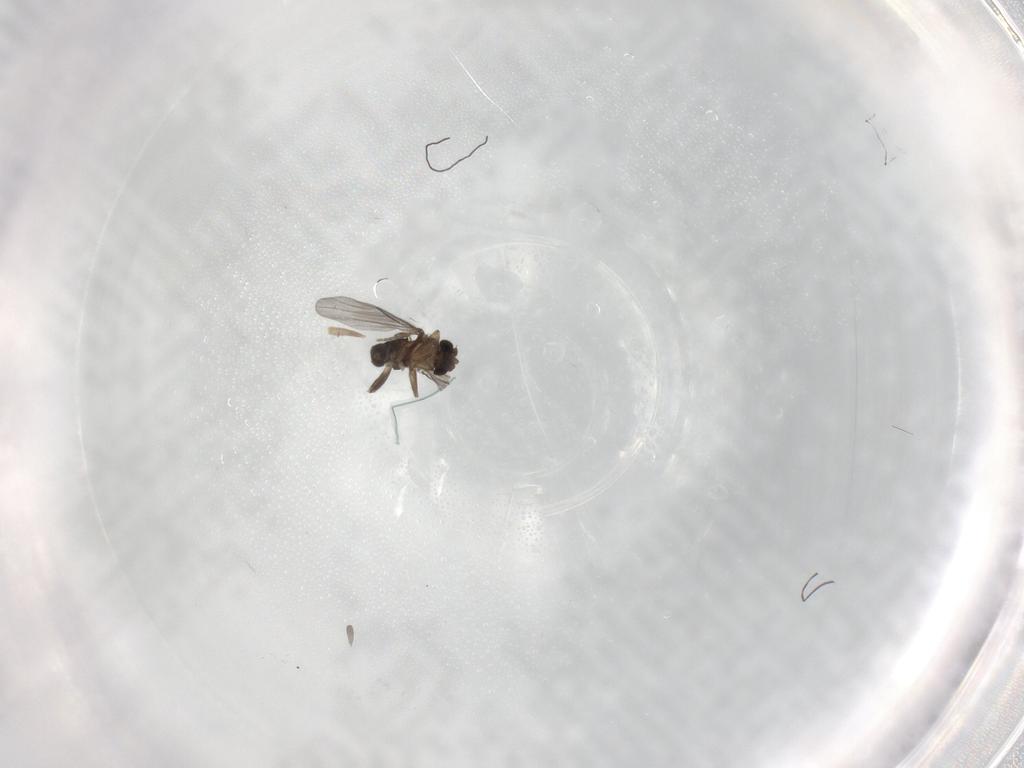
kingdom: Animalia
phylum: Arthropoda
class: Insecta
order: Diptera
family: Phoridae
